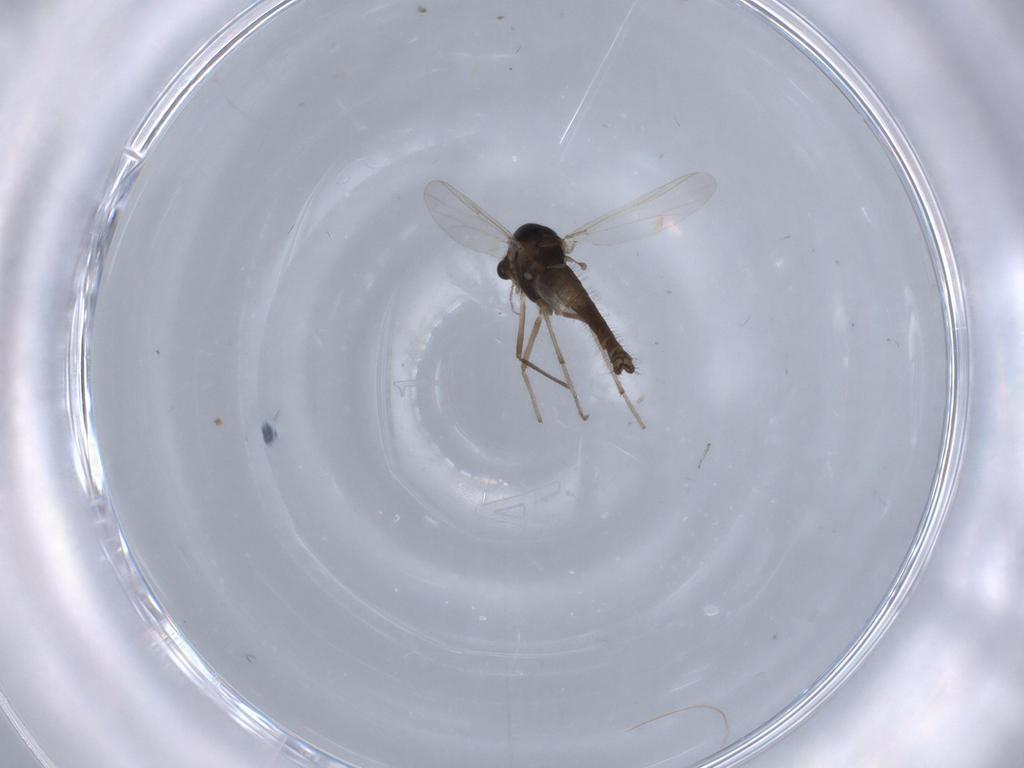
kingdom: Animalia
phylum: Arthropoda
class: Insecta
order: Diptera
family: Chironomidae
